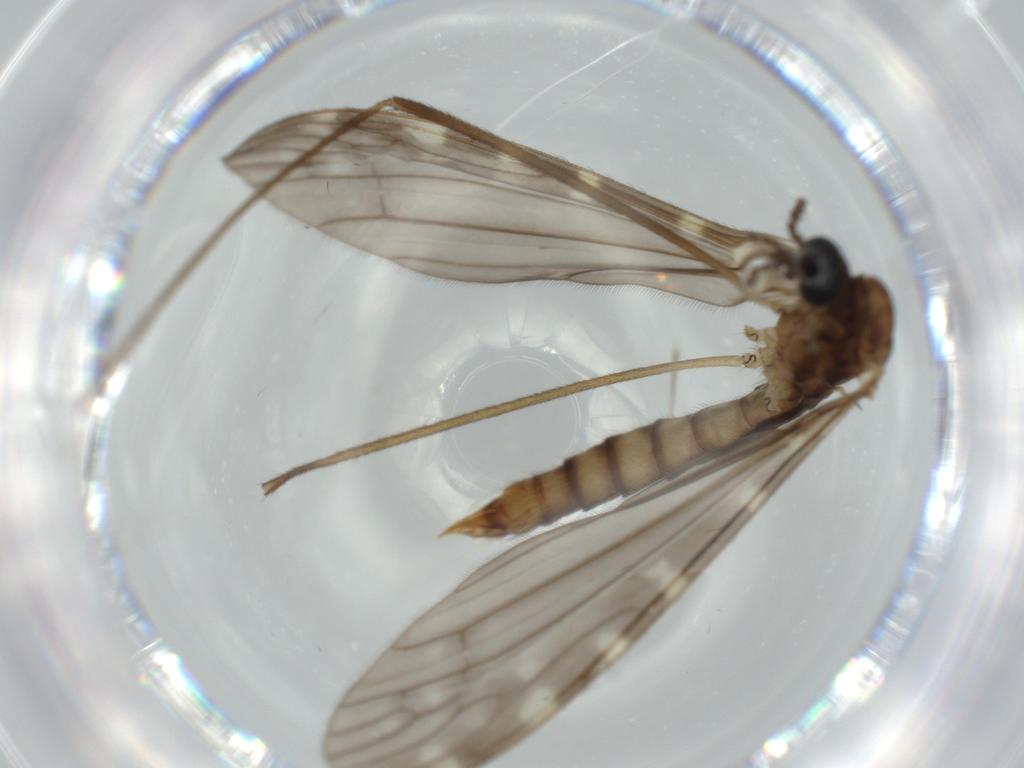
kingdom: Animalia
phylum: Arthropoda
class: Insecta
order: Diptera
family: Limoniidae
